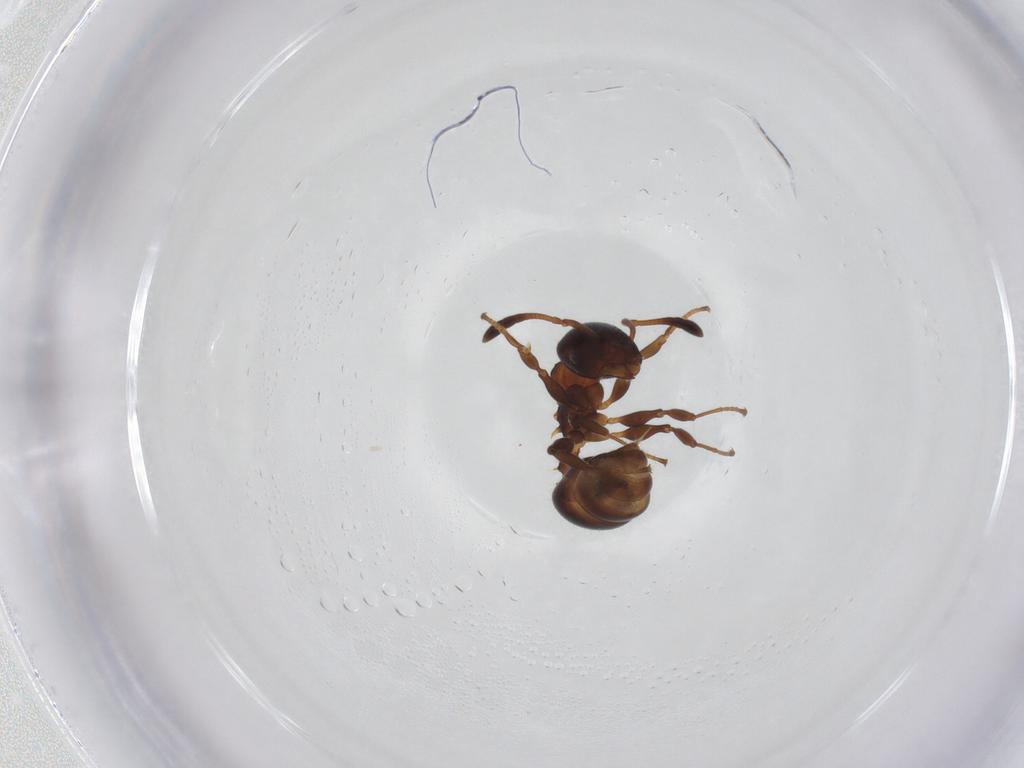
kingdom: Animalia
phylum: Arthropoda
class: Insecta
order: Hymenoptera
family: Formicidae
